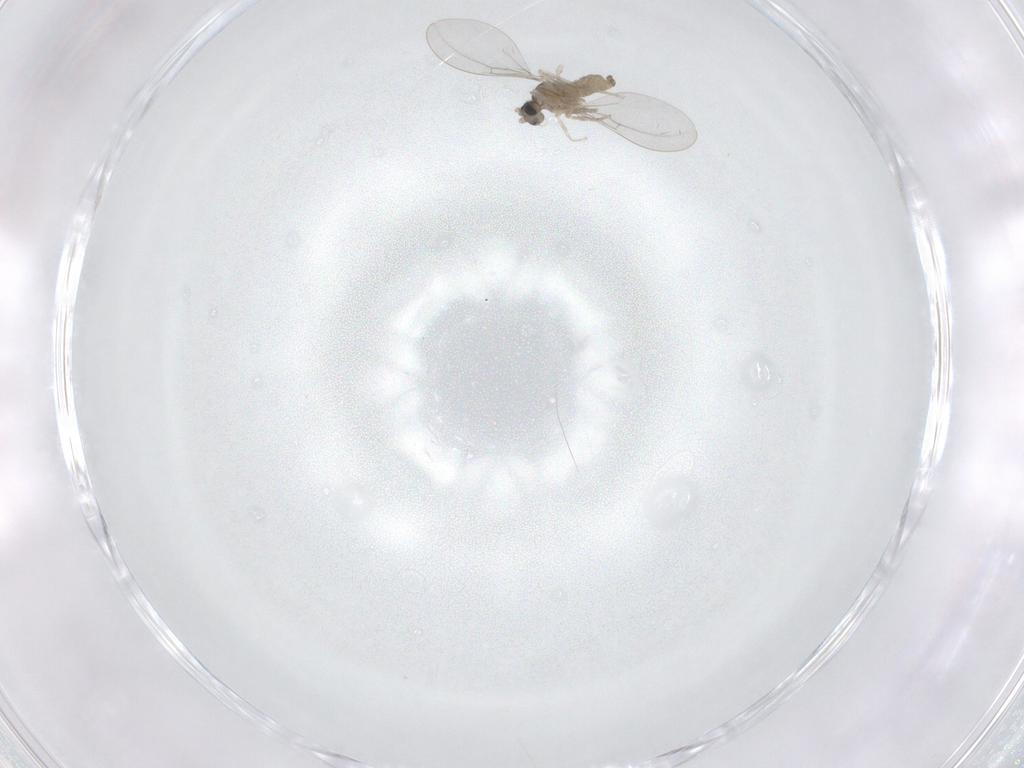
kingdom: Animalia
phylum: Arthropoda
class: Insecta
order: Diptera
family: Cecidomyiidae
